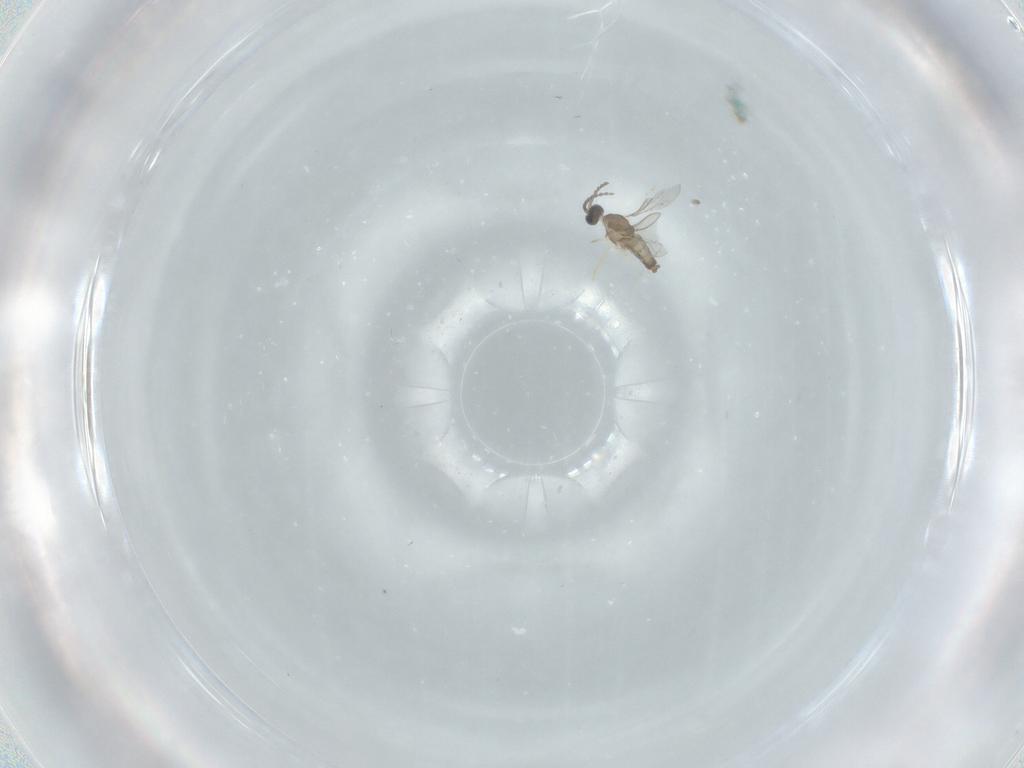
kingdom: Animalia
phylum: Arthropoda
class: Insecta
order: Diptera
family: Cecidomyiidae
